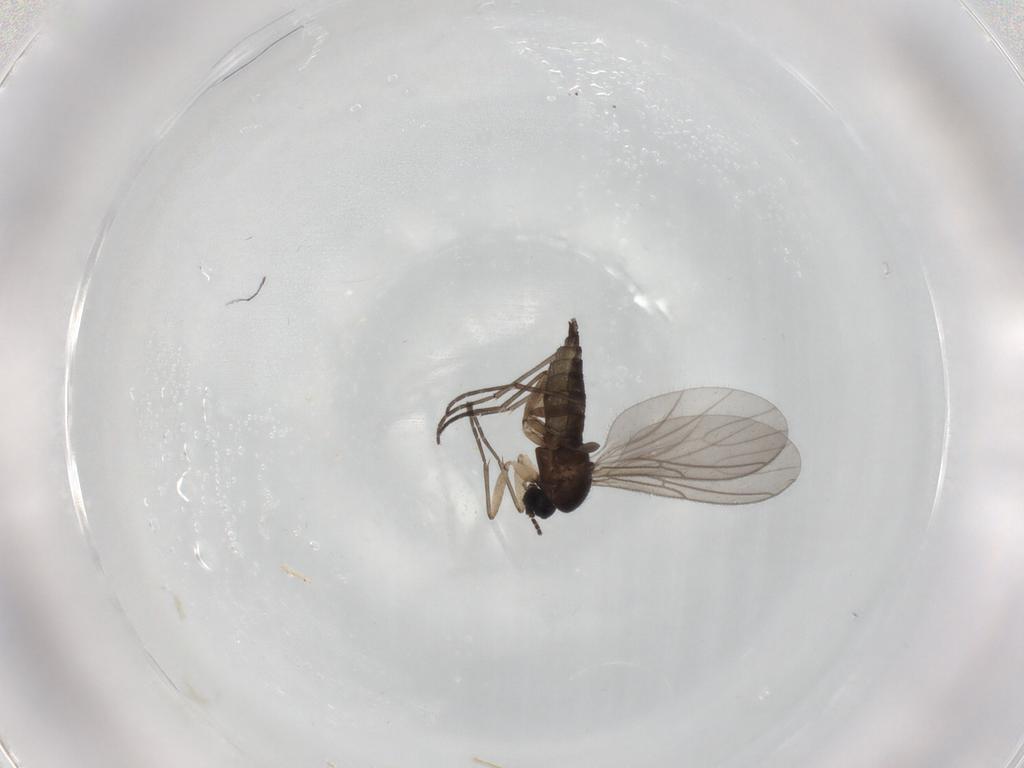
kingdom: Animalia
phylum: Arthropoda
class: Insecta
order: Diptera
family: Sciaridae
